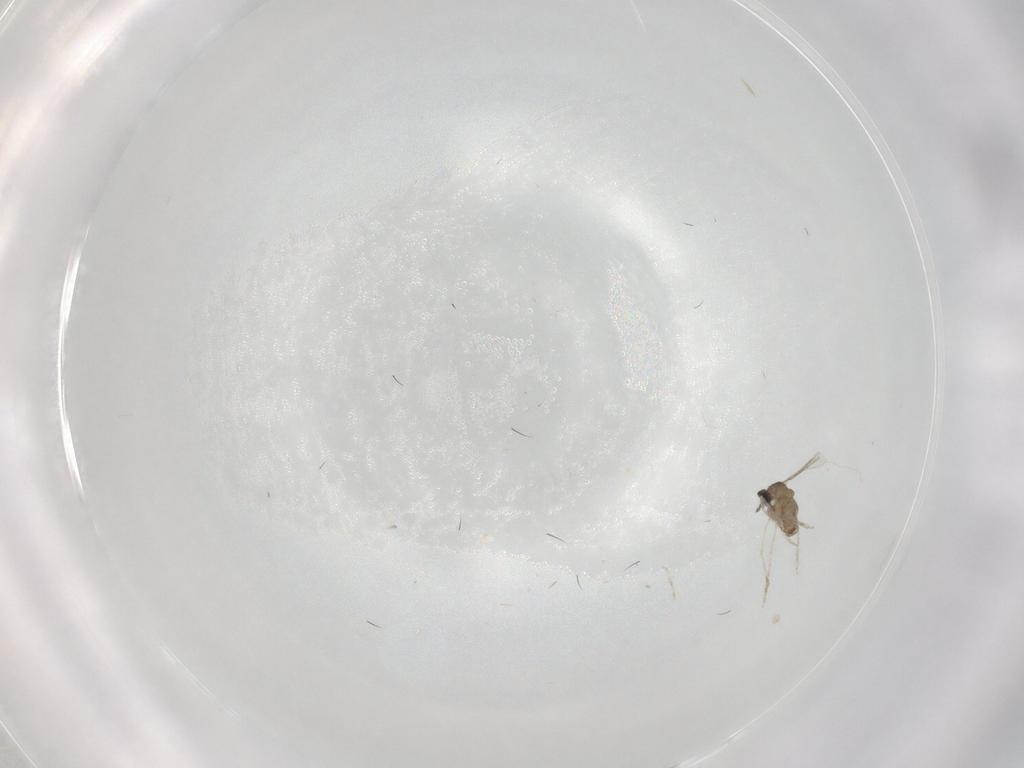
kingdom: Animalia
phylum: Arthropoda
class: Insecta
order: Diptera
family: Cecidomyiidae
